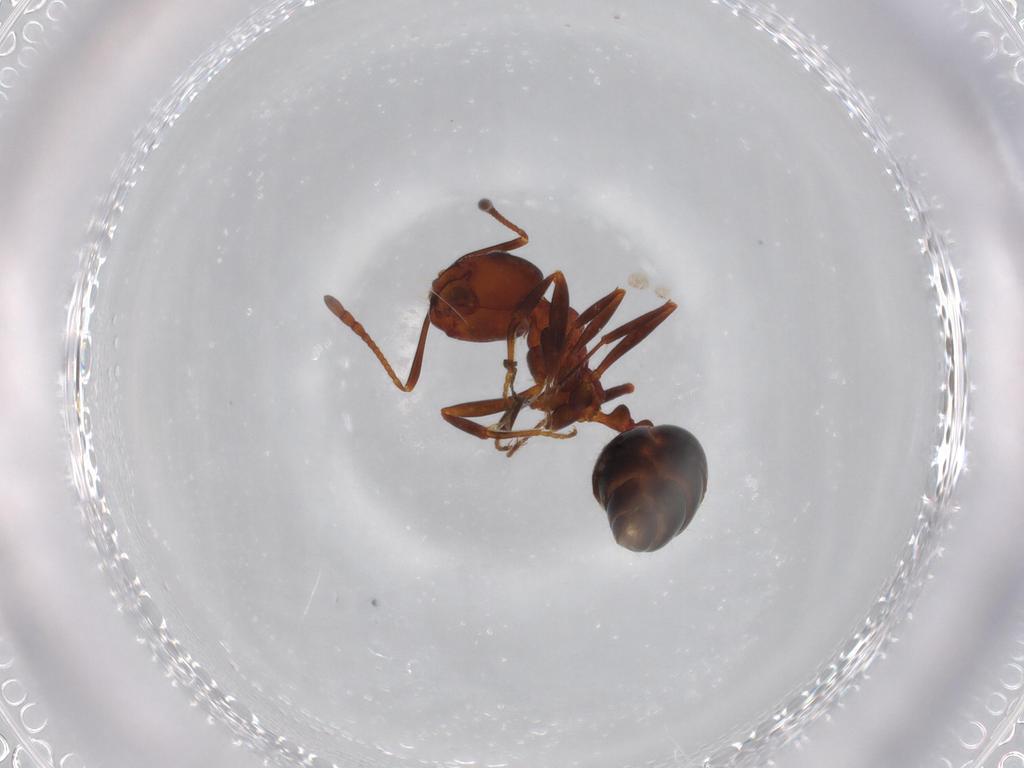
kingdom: Animalia
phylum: Arthropoda
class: Insecta
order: Hymenoptera
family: Formicidae
